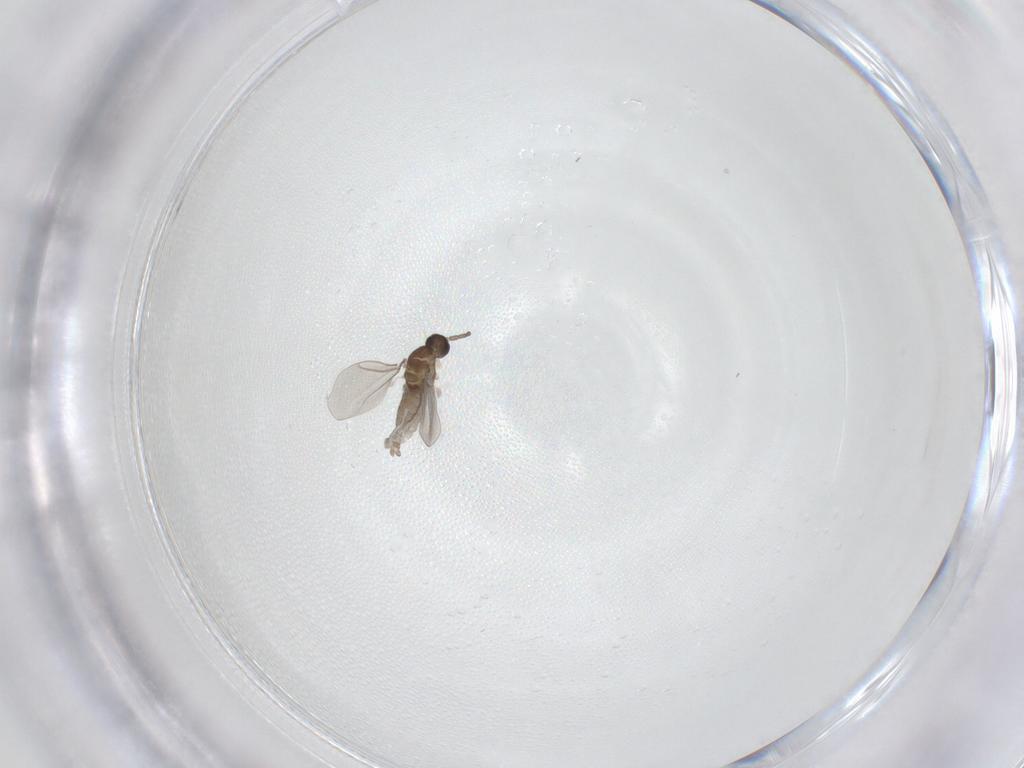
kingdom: Animalia
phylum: Arthropoda
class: Insecta
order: Diptera
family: Cecidomyiidae
